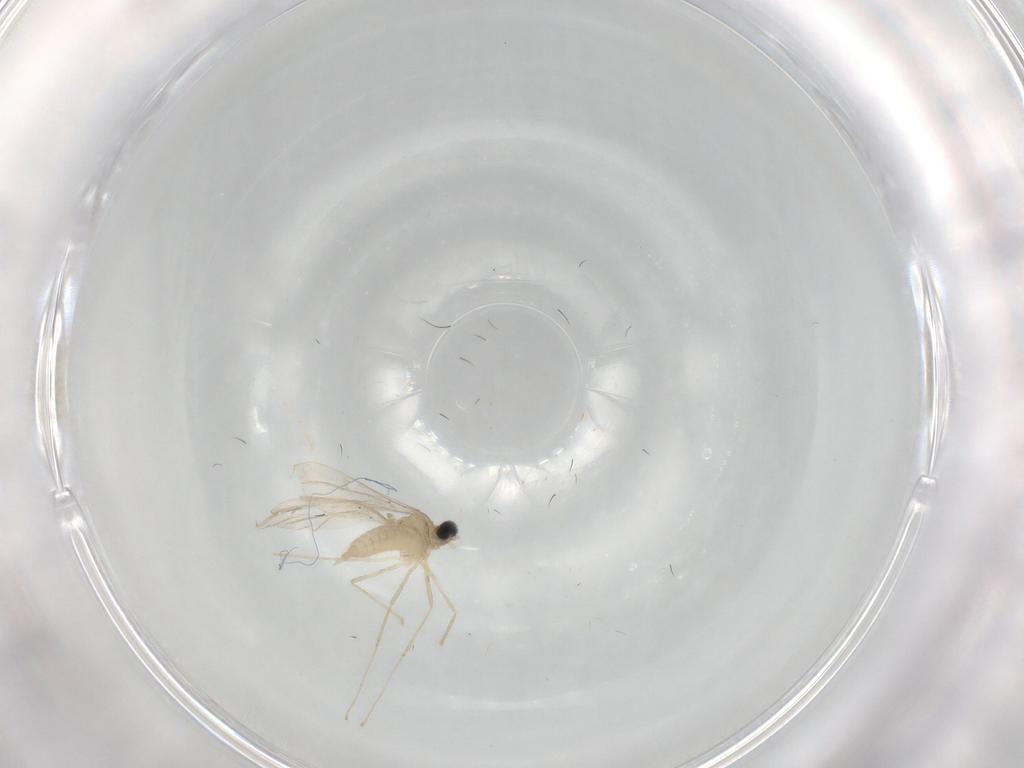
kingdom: Animalia
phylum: Arthropoda
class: Insecta
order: Diptera
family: Cecidomyiidae
